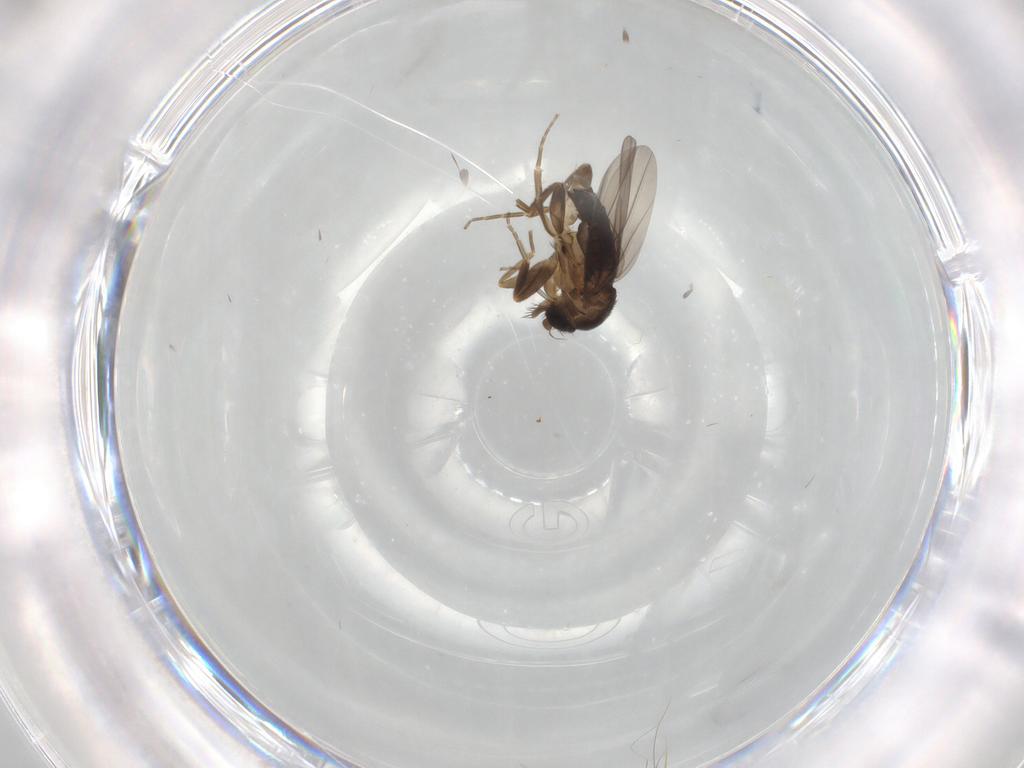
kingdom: Animalia
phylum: Arthropoda
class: Insecta
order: Diptera
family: Phoridae
